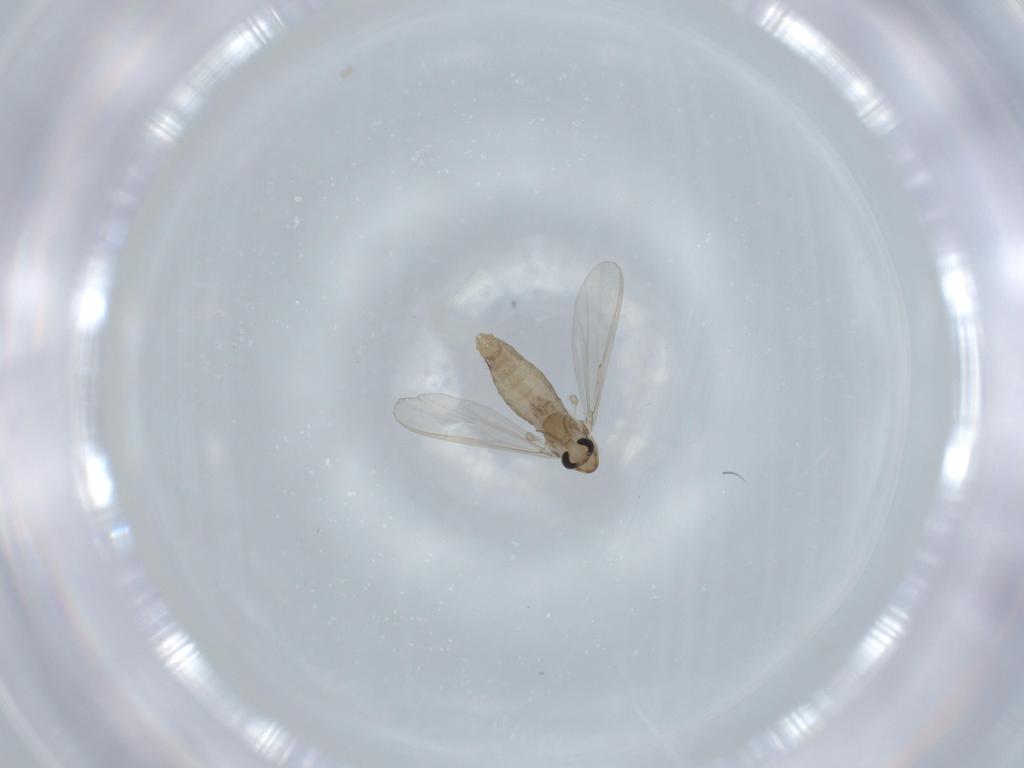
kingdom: Animalia
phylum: Arthropoda
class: Insecta
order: Diptera
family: Chironomidae
